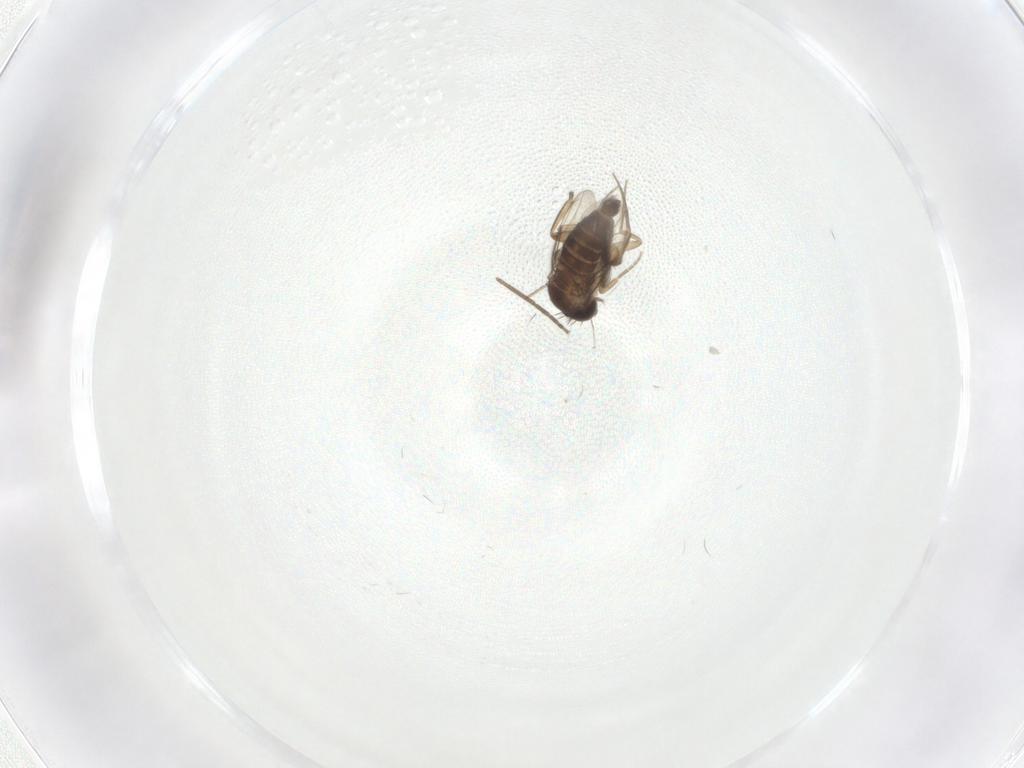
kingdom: Animalia
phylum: Arthropoda
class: Insecta
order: Diptera
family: Phoridae
